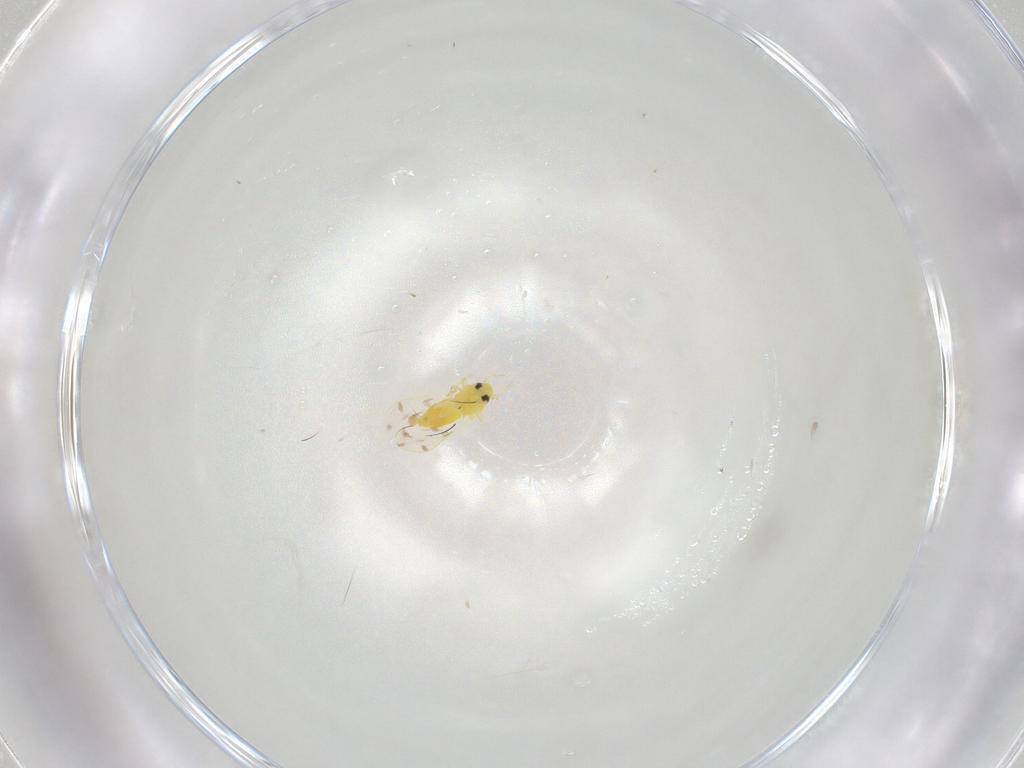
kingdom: Animalia
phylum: Arthropoda
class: Insecta
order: Hemiptera
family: Aleyrodidae
